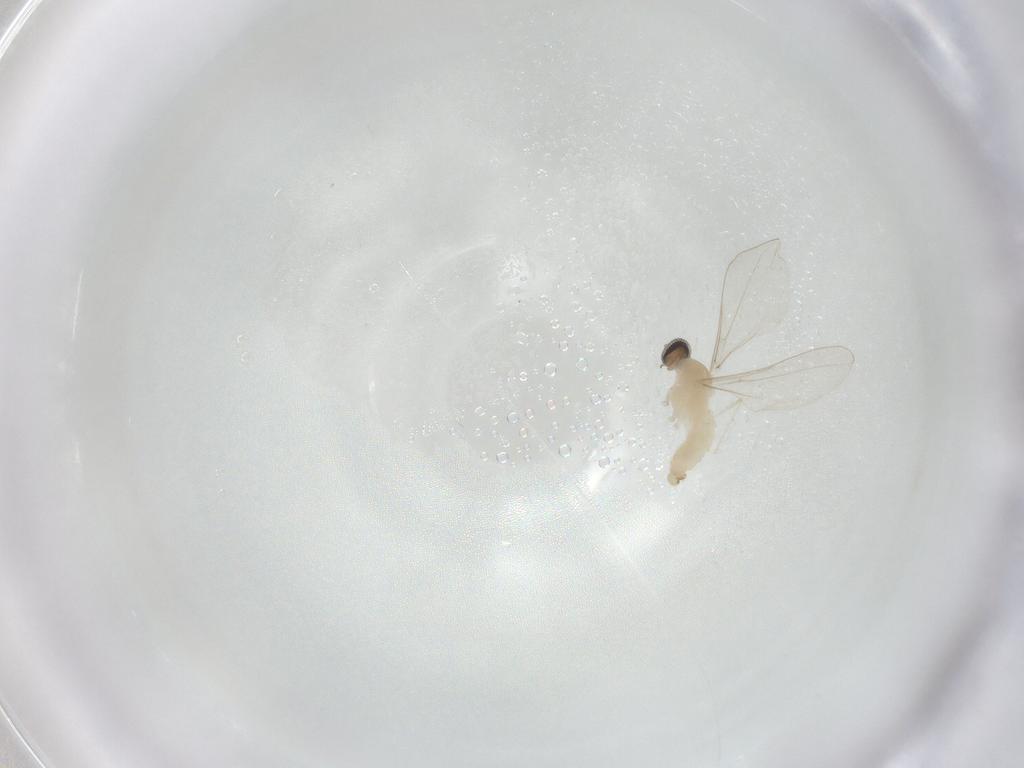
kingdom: Animalia
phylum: Arthropoda
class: Insecta
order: Diptera
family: Cecidomyiidae
